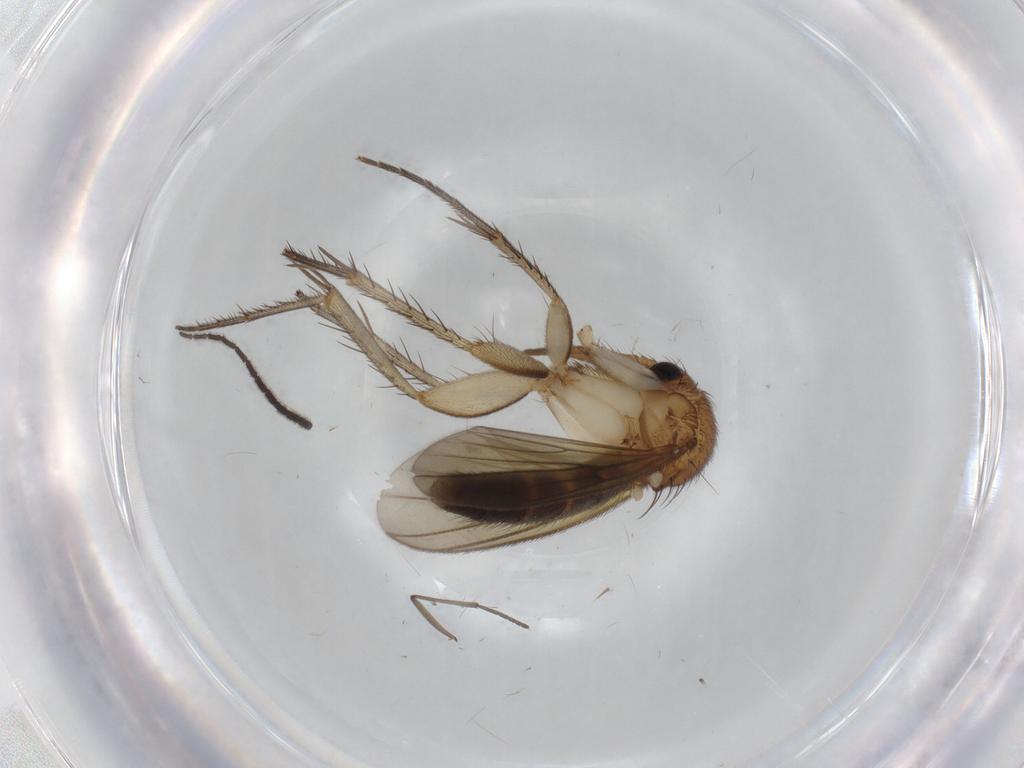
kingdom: Animalia
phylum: Arthropoda
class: Insecta
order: Diptera
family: Mycetophilidae
